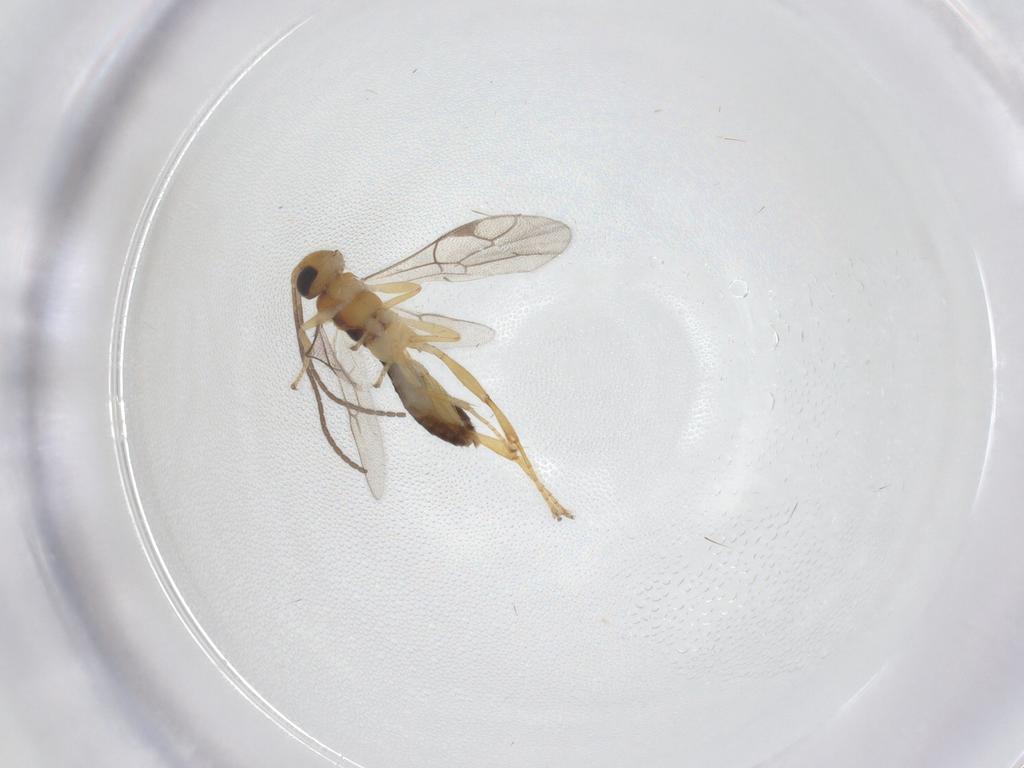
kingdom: Animalia
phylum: Arthropoda
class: Insecta
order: Hymenoptera
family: Ichneumonidae
